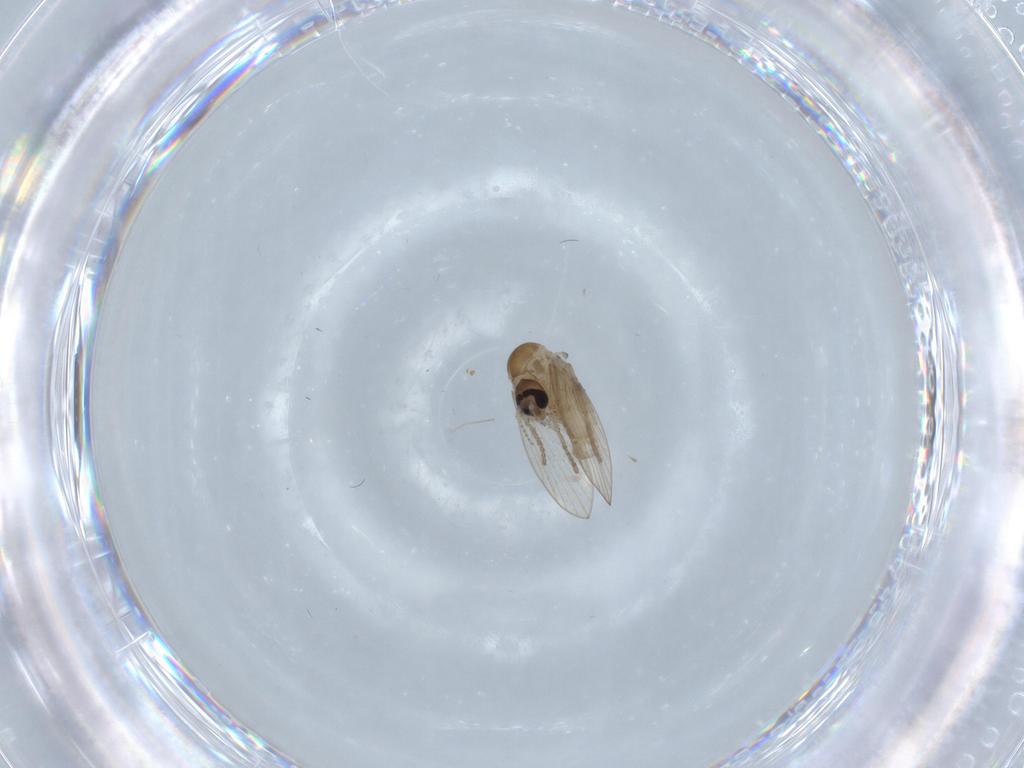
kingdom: Animalia
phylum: Arthropoda
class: Insecta
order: Diptera
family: Psychodidae
